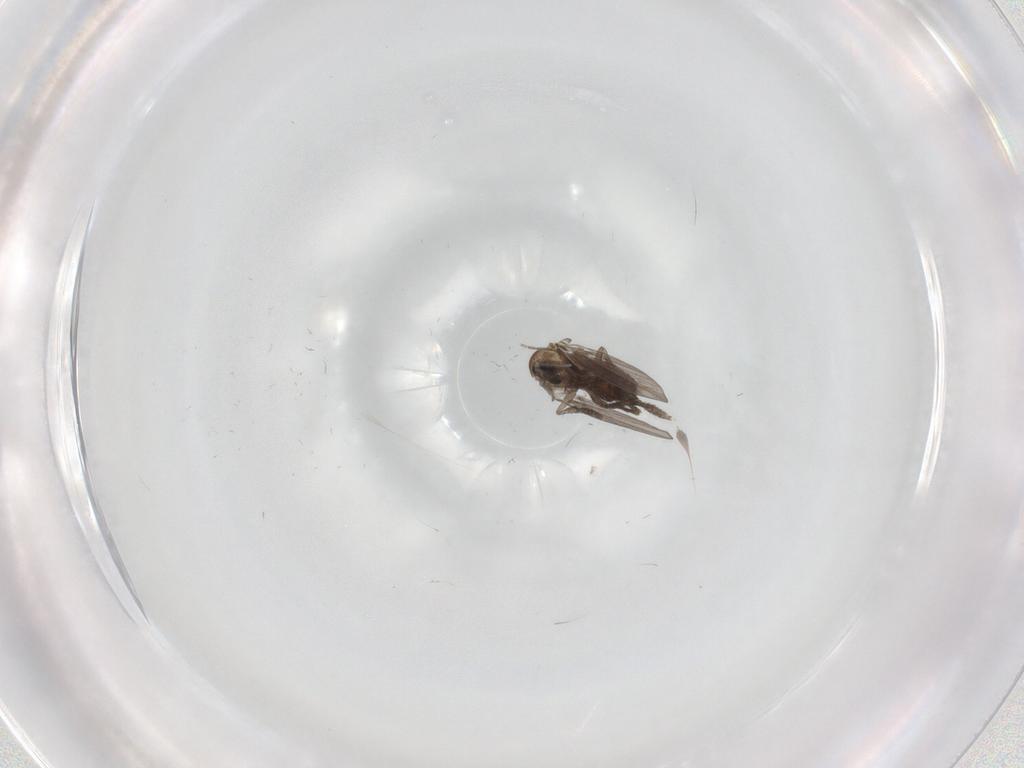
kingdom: Animalia
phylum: Arthropoda
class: Insecta
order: Diptera
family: Psychodidae
